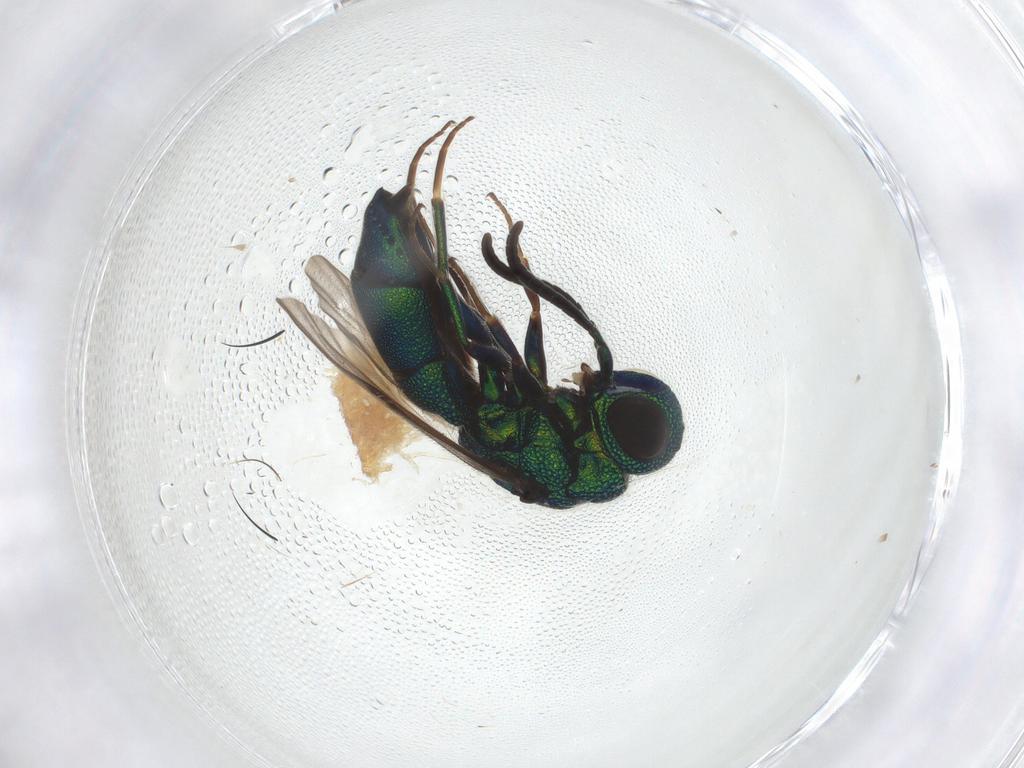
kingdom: Animalia
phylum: Arthropoda
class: Insecta
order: Hymenoptera
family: Chrysididae
